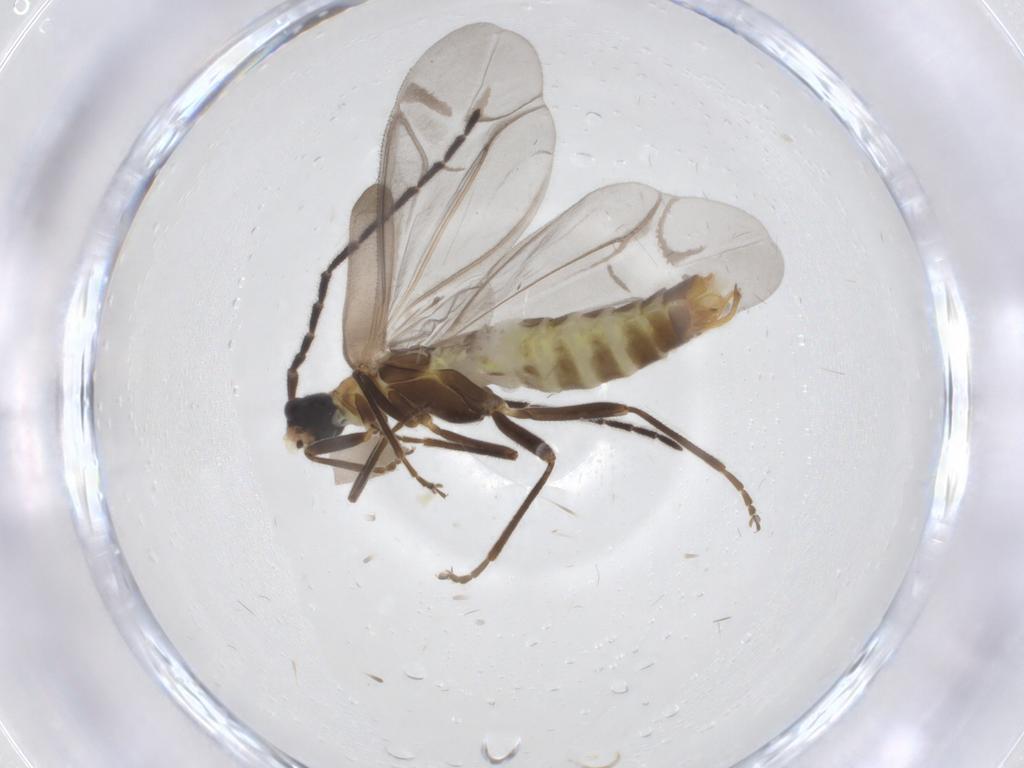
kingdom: Animalia
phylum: Arthropoda
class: Insecta
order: Coleoptera
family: Cantharidae
